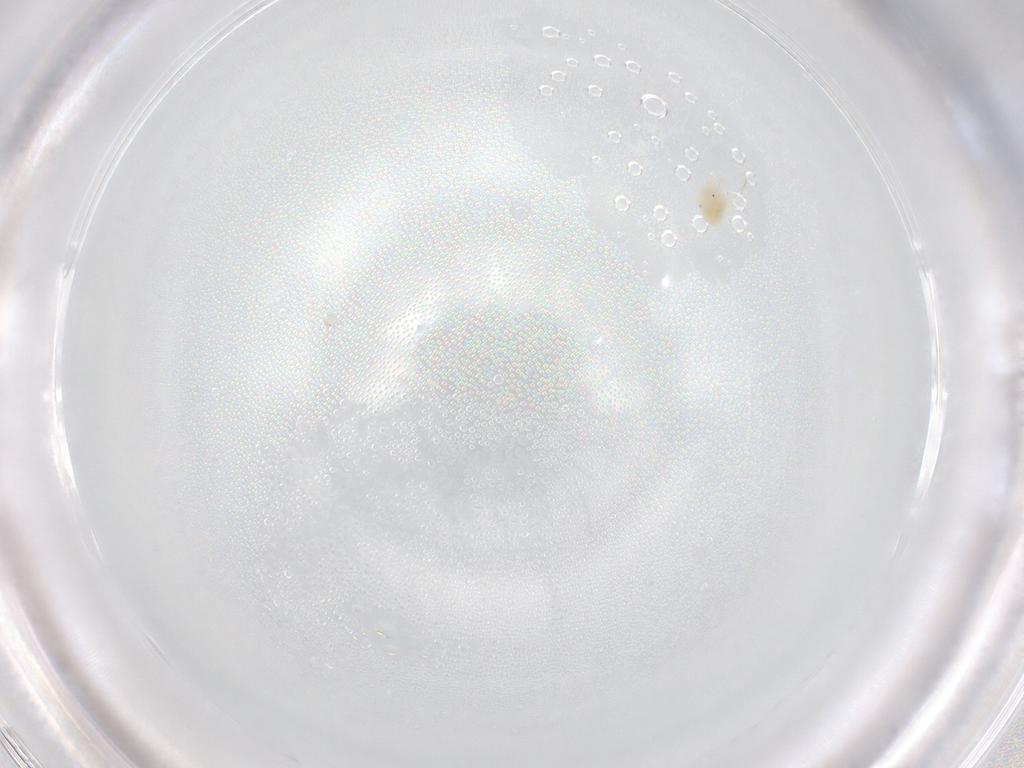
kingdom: Animalia
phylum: Arthropoda
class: Arachnida
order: Trombidiformes
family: Anystidae
